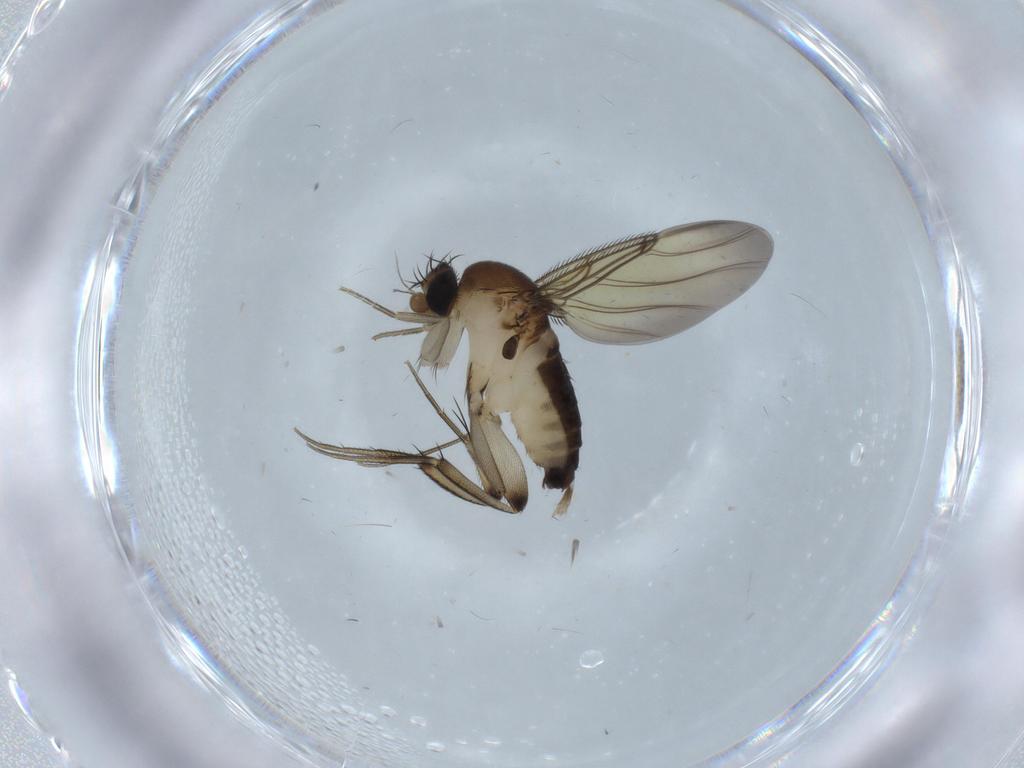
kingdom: Animalia
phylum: Arthropoda
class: Insecta
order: Diptera
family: Phoridae
